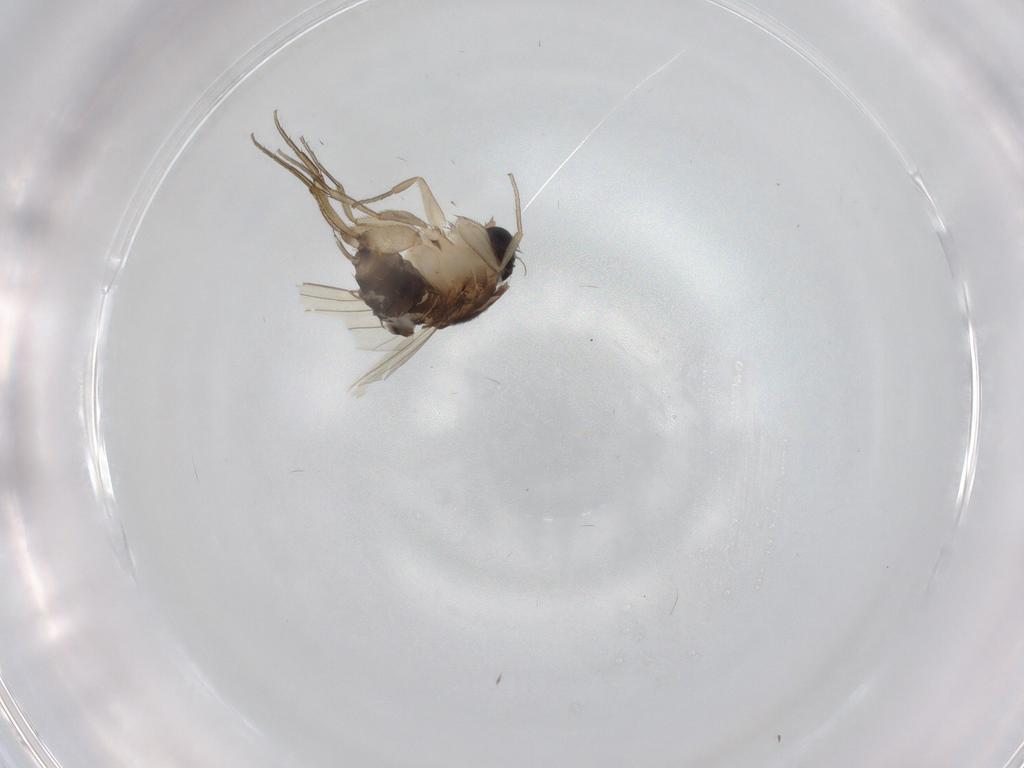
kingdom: Animalia
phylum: Arthropoda
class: Insecta
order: Diptera
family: Phoridae
